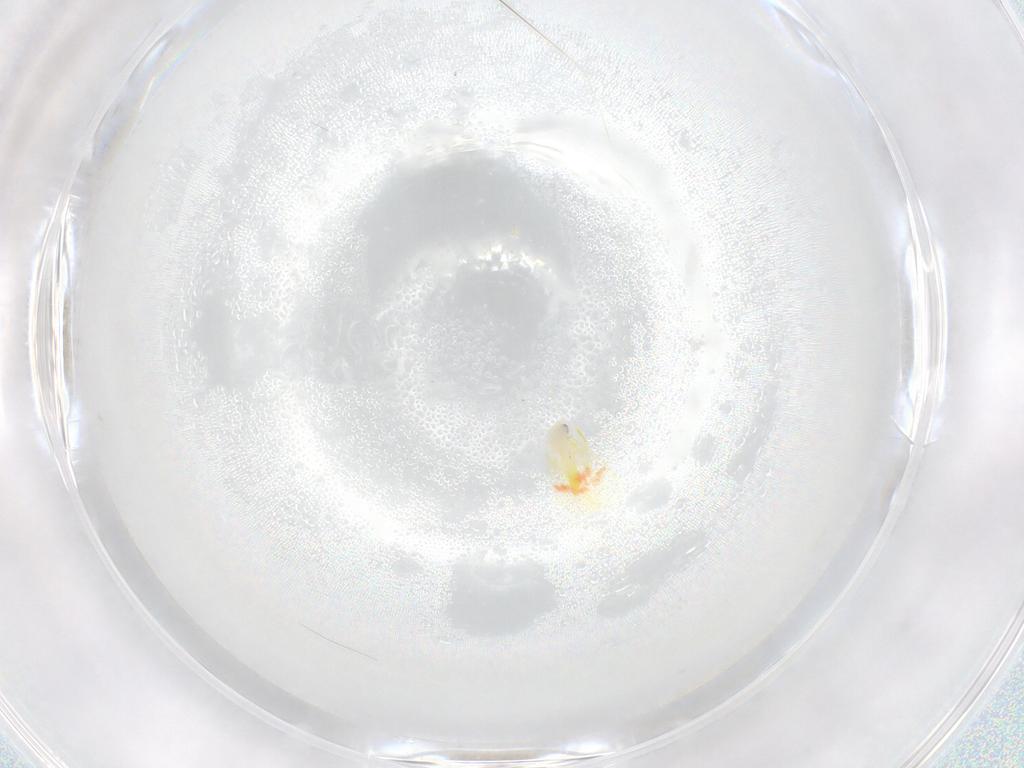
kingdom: Animalia
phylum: Arthropoda
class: Insecta
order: Hemiptera
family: Aleyrodidae
